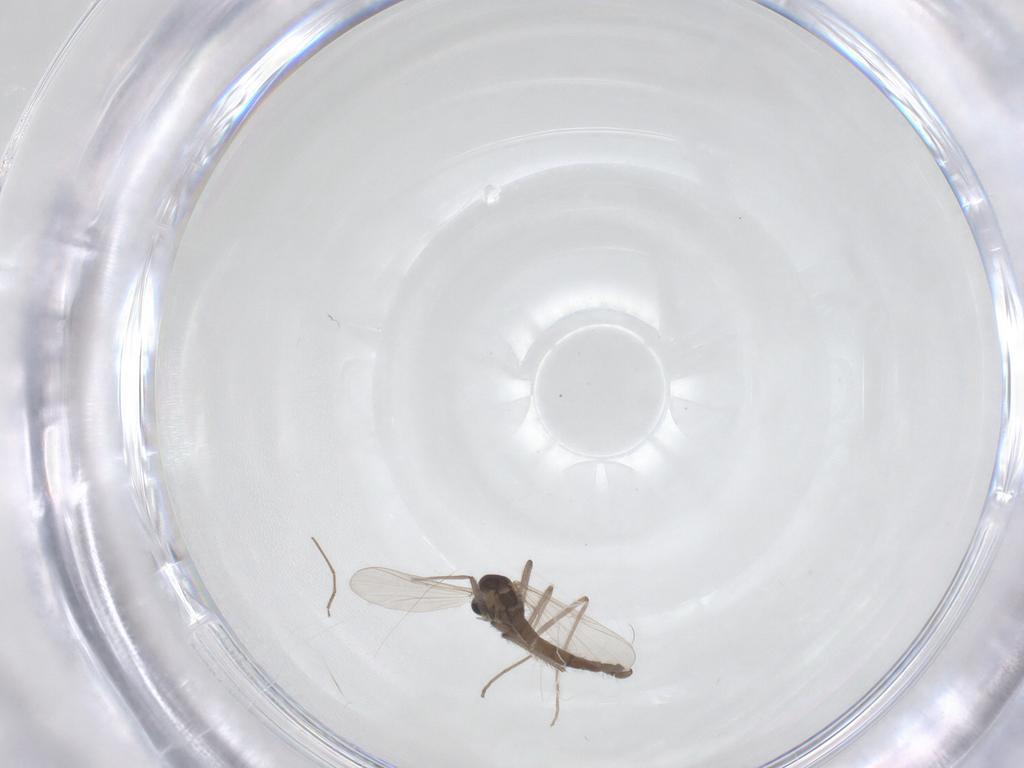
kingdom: Animalia
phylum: Arthropoda
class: Insecta
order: Diptera
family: Chironomidae
